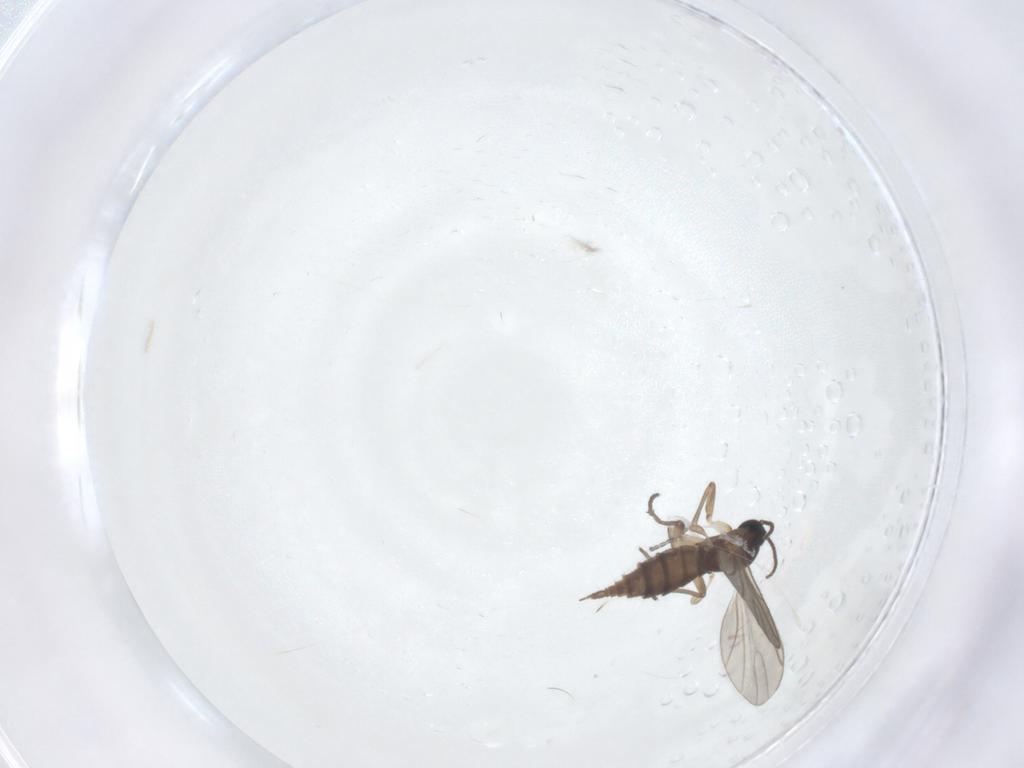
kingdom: Animalia
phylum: Arthropoda
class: Insecta
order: Diptera
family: Sciaridae
